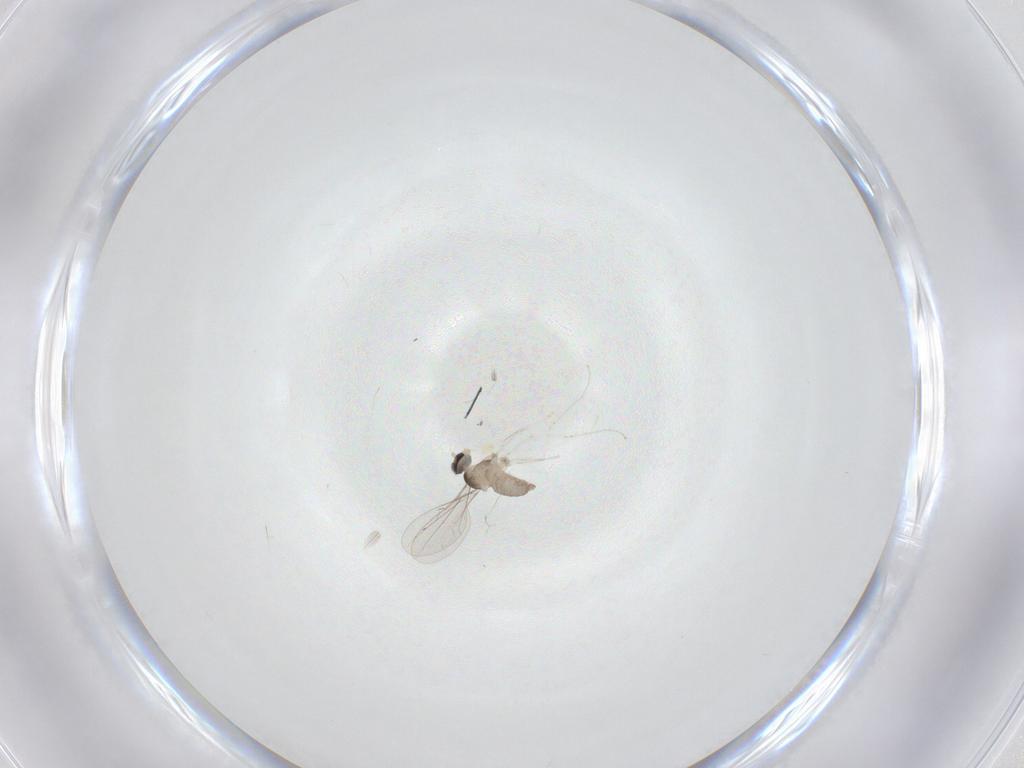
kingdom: Animalia
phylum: Arthropoda
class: Insecta
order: Diptera
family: Cecidomyiidae
